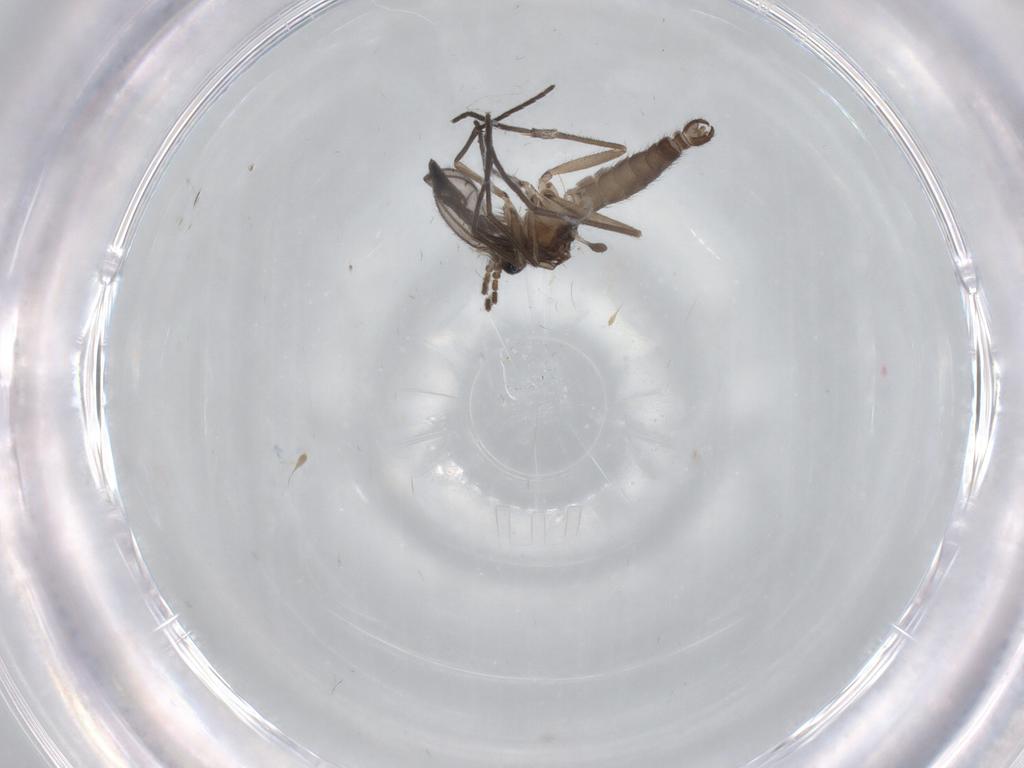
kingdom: Animalia
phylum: Arthropoda
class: Insecta
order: Diptera
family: Sciaridae
